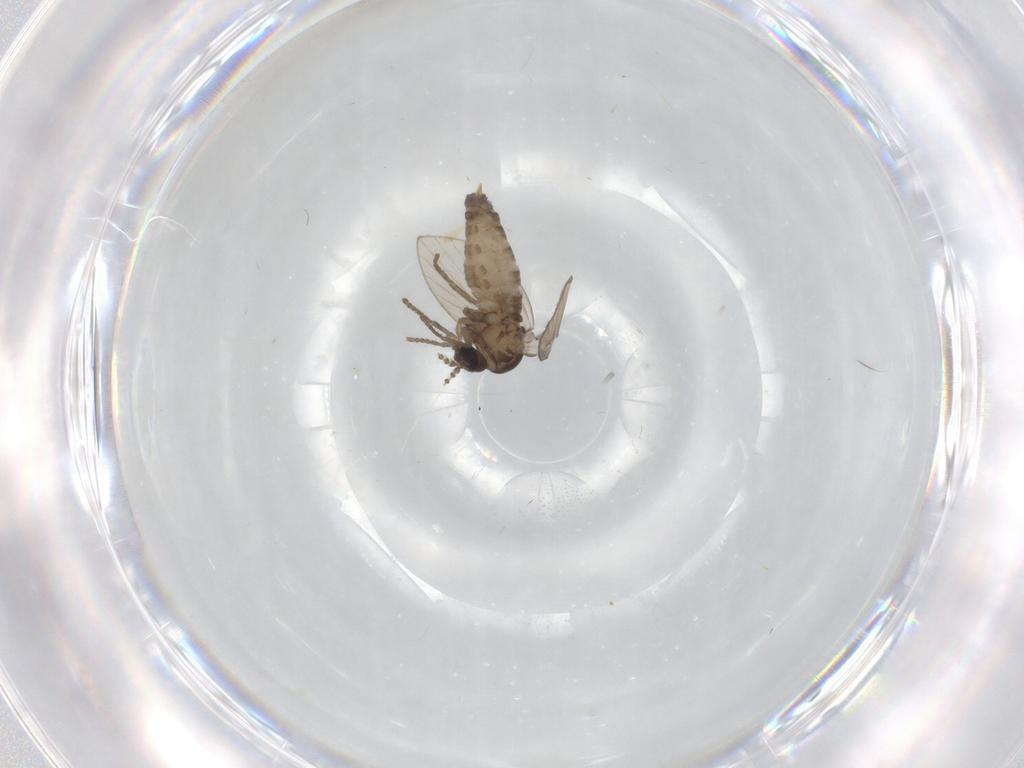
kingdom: Animalia
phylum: Arthropoda
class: Insecta
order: Diptera
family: Psychodidae
